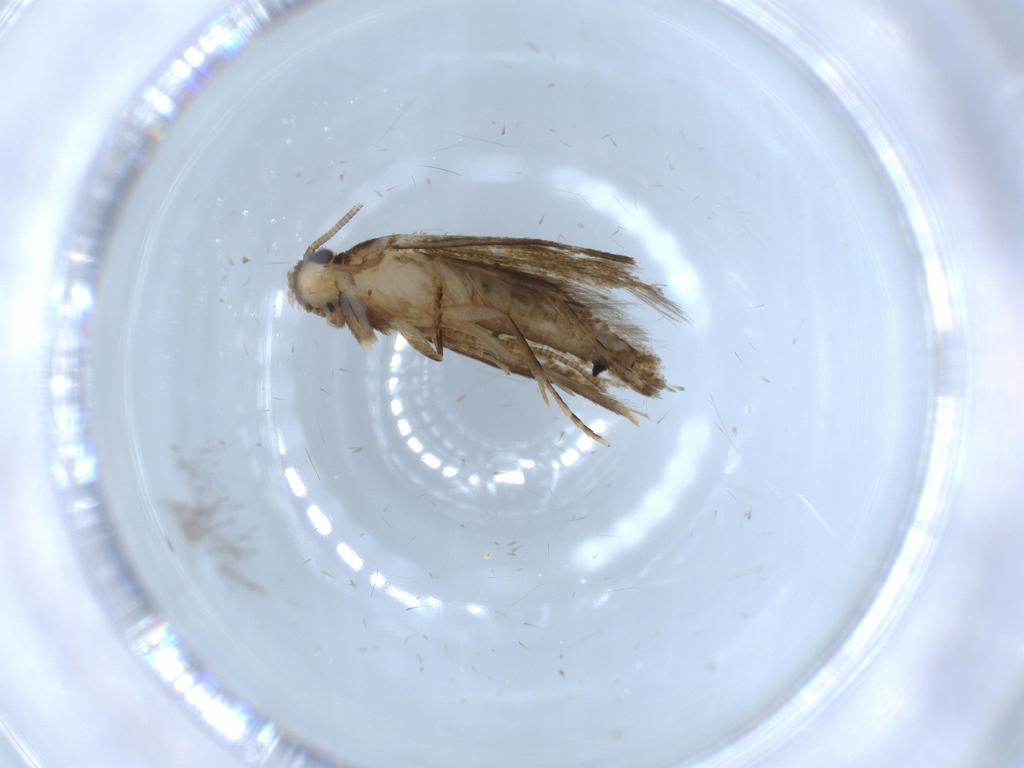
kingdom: Animalia
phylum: Arthropoda
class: Insecta
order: Lepidoptera
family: Tineidae
